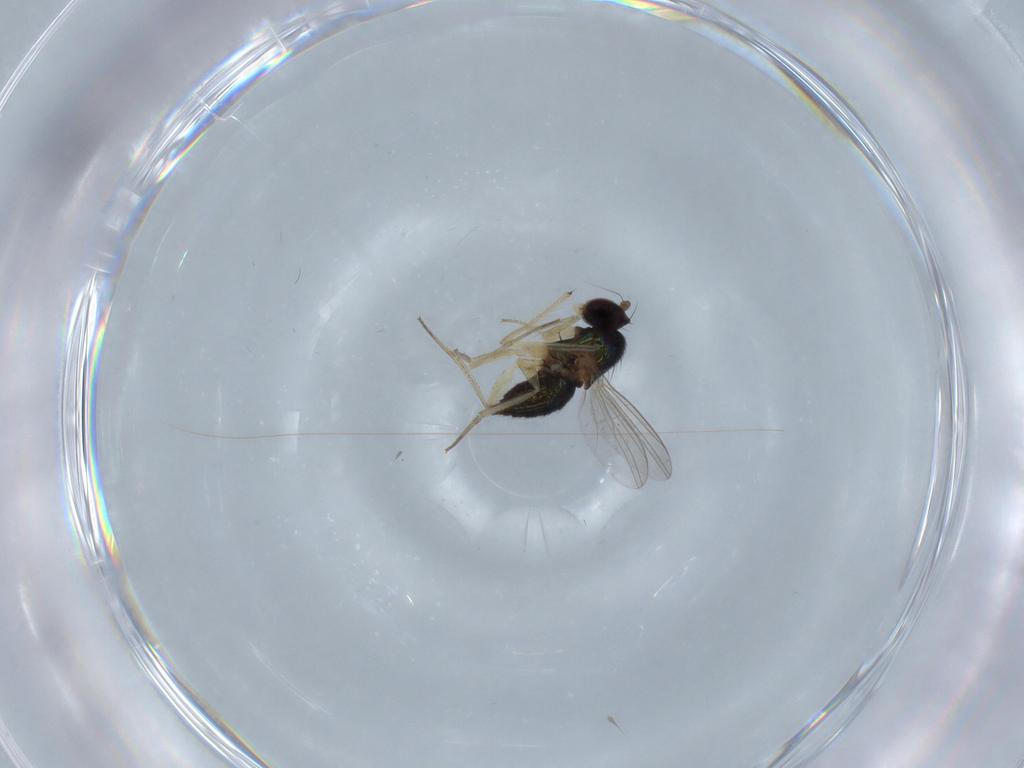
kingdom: Animalia
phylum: Arthropoda
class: Insecta
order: Diptera
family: Dolichopodidae
